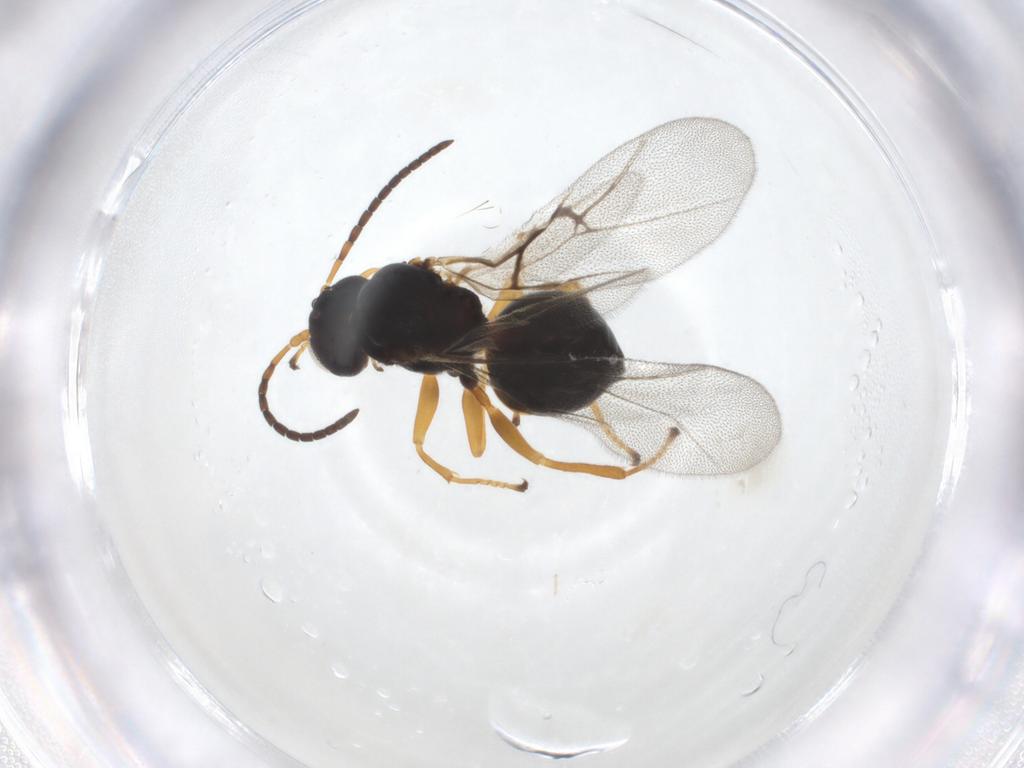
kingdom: Animalia
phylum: Arthropoda
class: Insecta
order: Hymenoptera
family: Cynipidae
